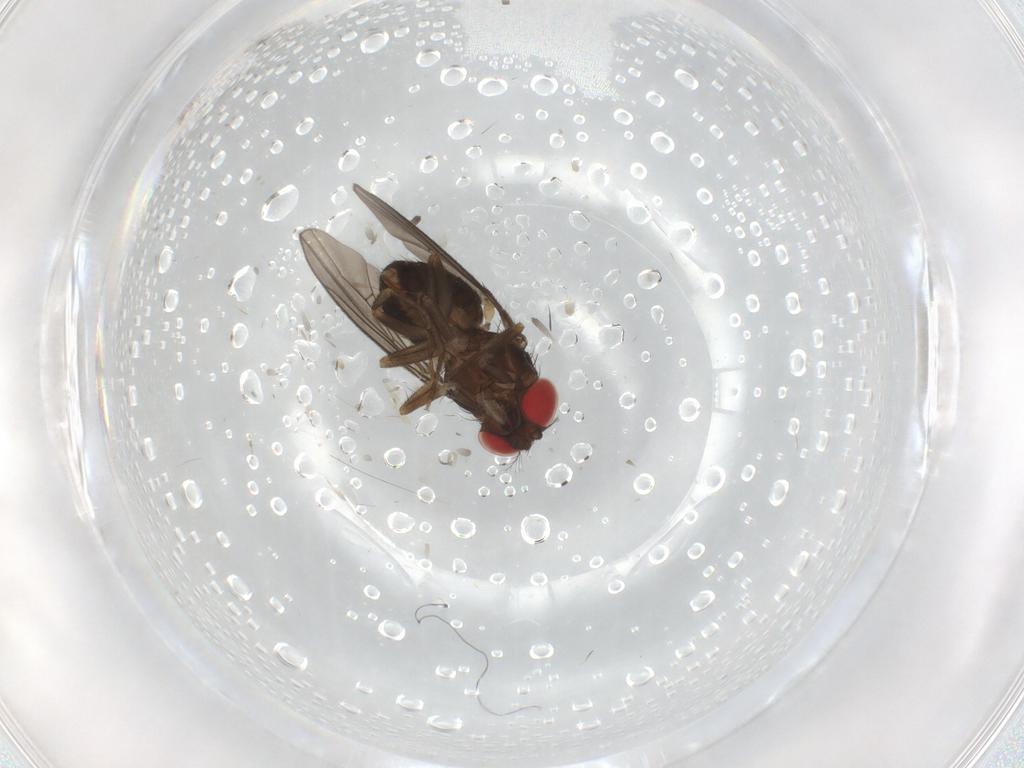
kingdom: Animalia
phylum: Arthropoda
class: Insecta
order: Diptera
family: Drosophilidae
